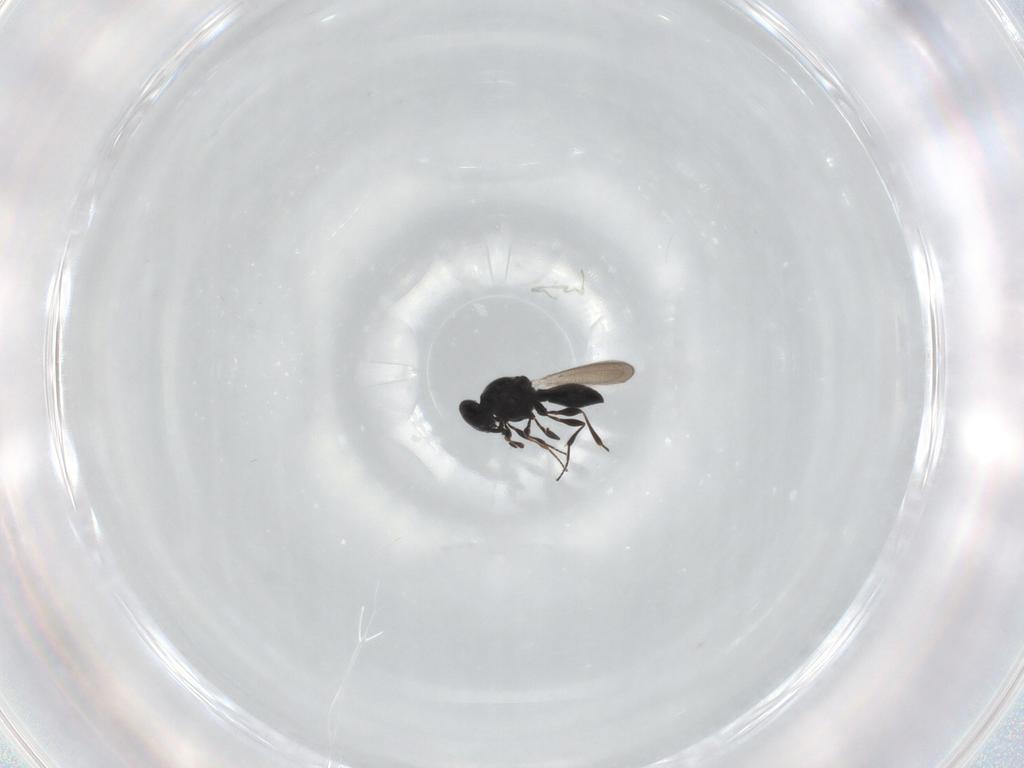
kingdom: Animalia
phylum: Arthropoda
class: Insecta
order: Hymenoptera
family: Platygastridae
